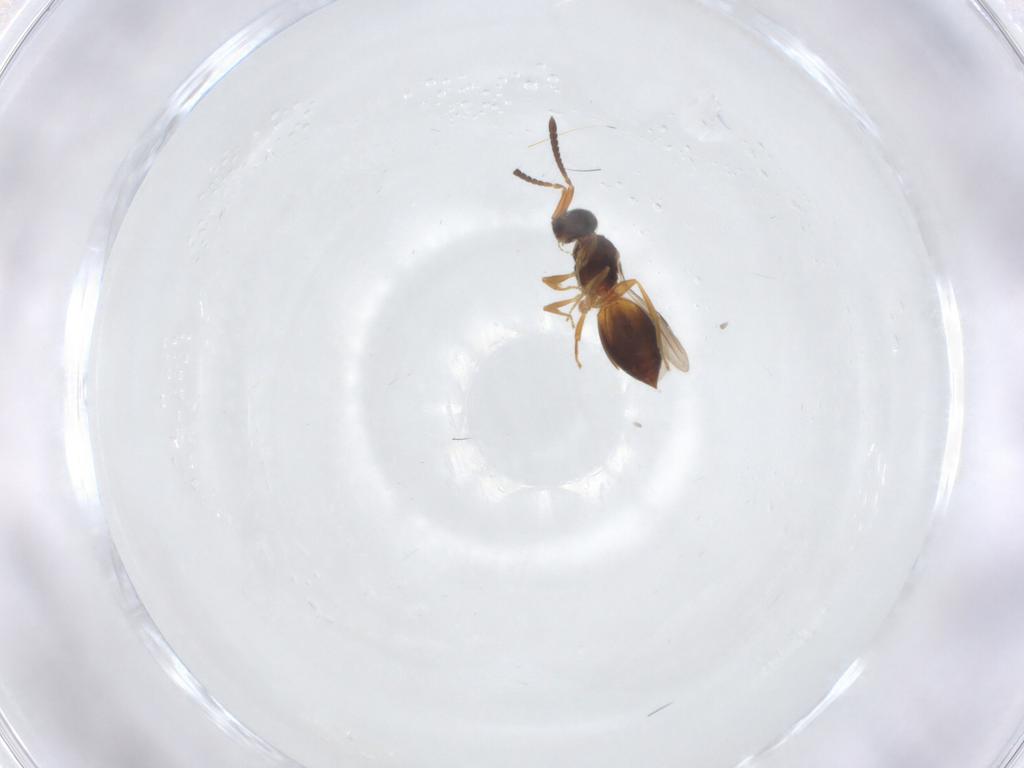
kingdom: Animalia
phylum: Arthropoda
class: Insecta
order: Hymenoptera
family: Megaspilidae
